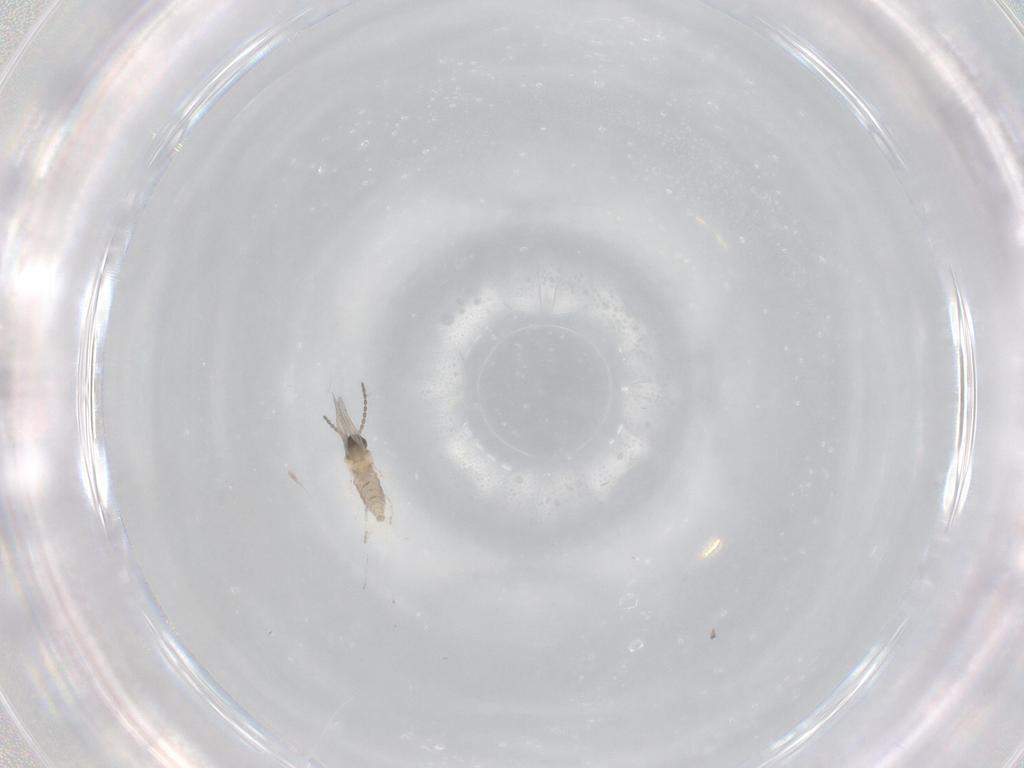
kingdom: Animalia
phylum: Arthropoda
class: Insecta
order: Diptera
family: Cecidomyiidae
